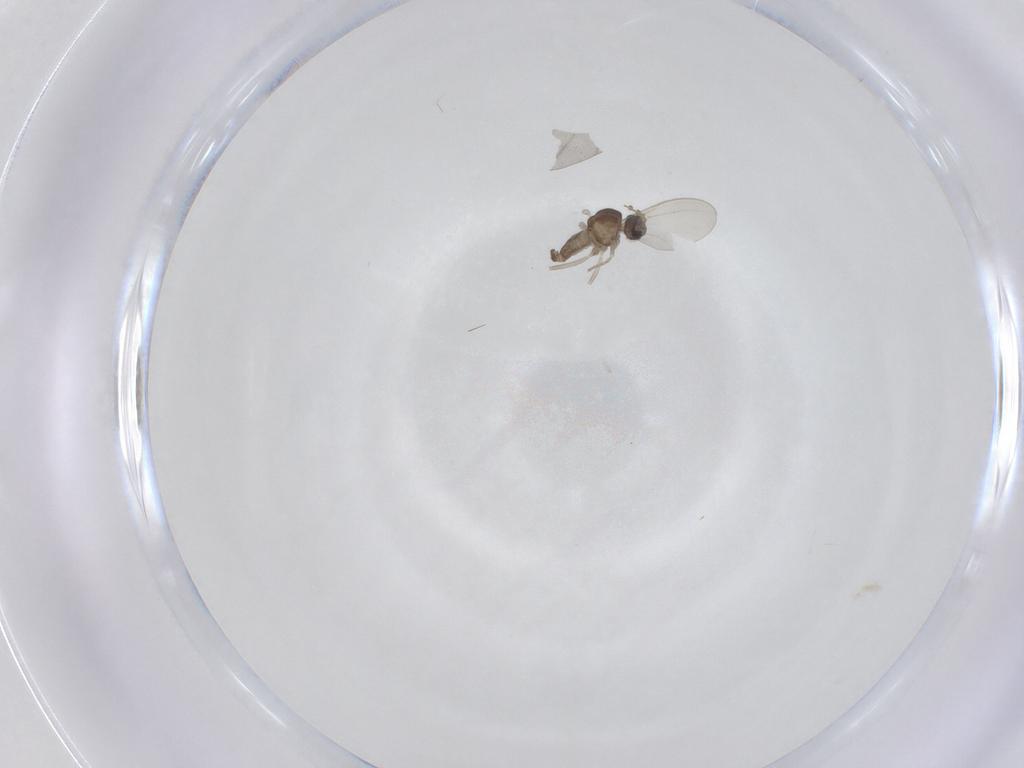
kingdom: Animalia
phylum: Arthropoda
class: Insecta
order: Diptera
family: Cecidomyiidae
